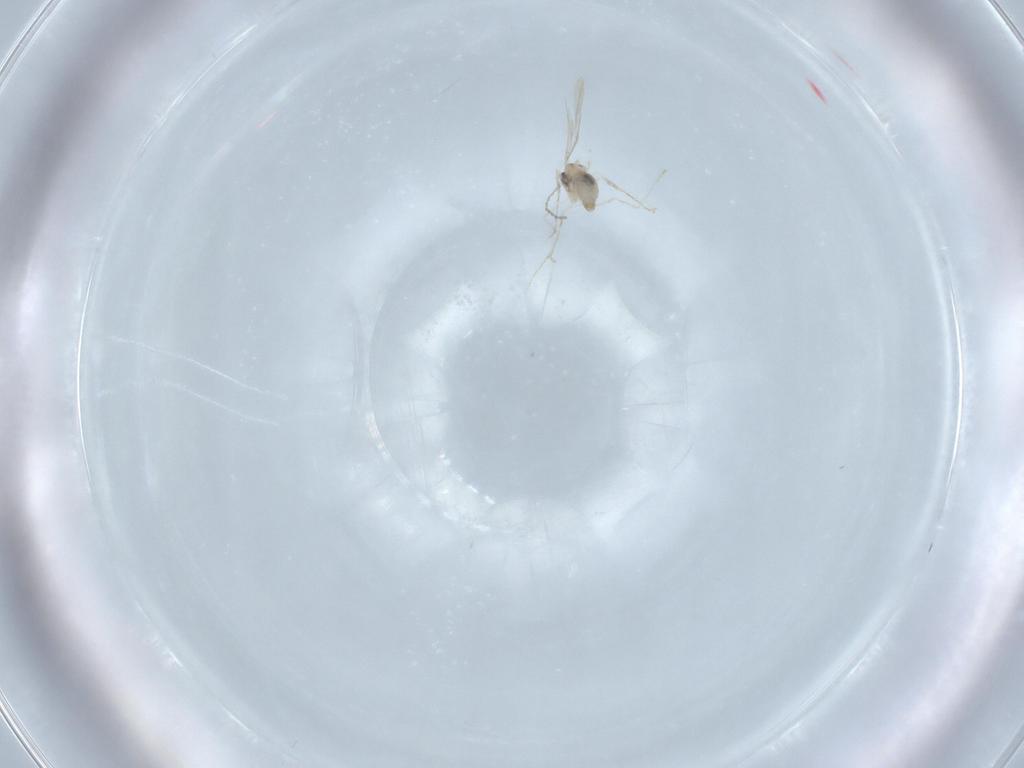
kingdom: Animalia
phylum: Arthropoda
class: Insecta
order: Diptera
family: Cecidomyiidae
